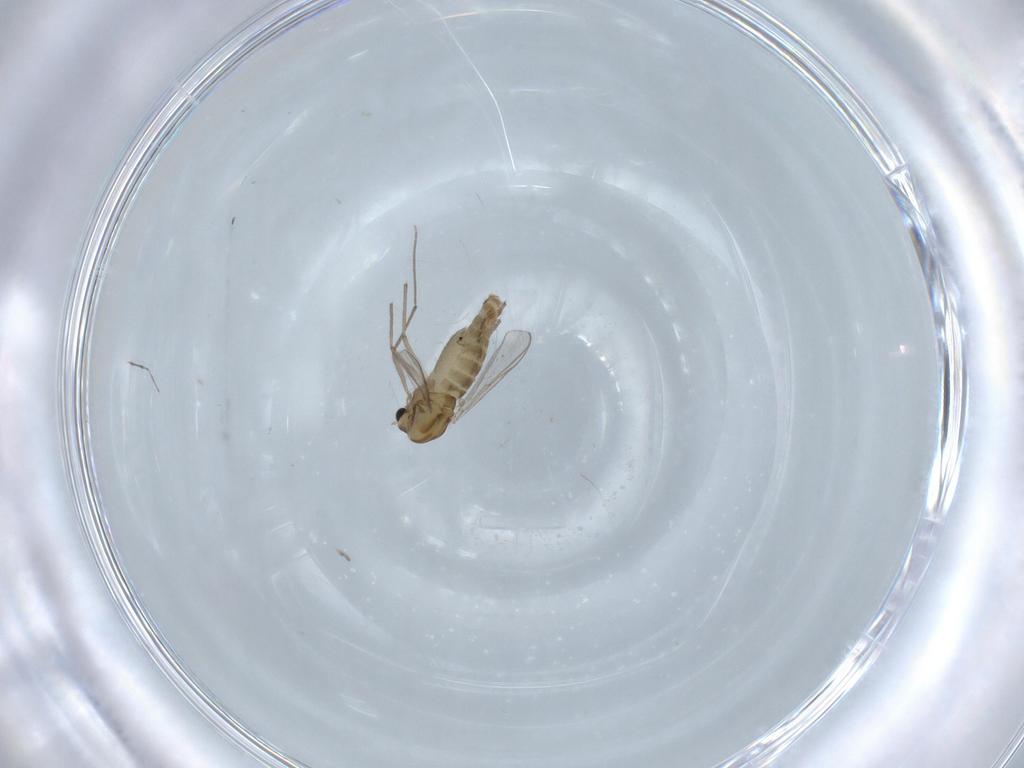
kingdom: Animalia
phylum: Arthropoda
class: Insecta
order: Diptera
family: Chironomidae
